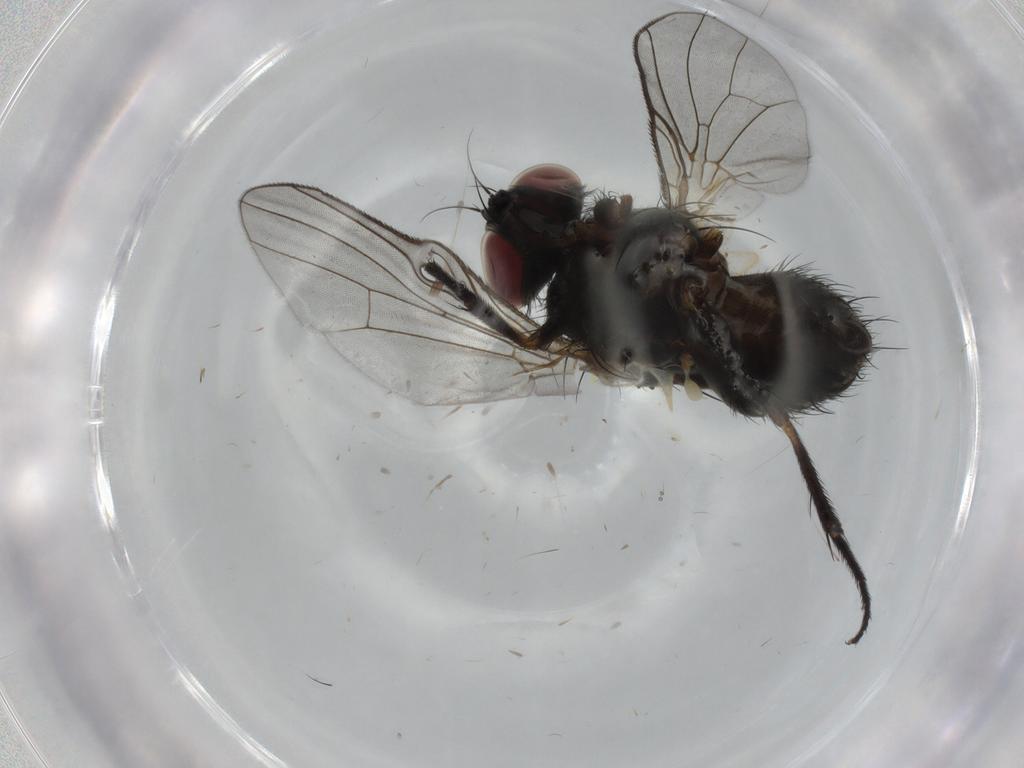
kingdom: Animalia
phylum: Arthropoda
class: Insecta
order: Diptera
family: Muscidae
